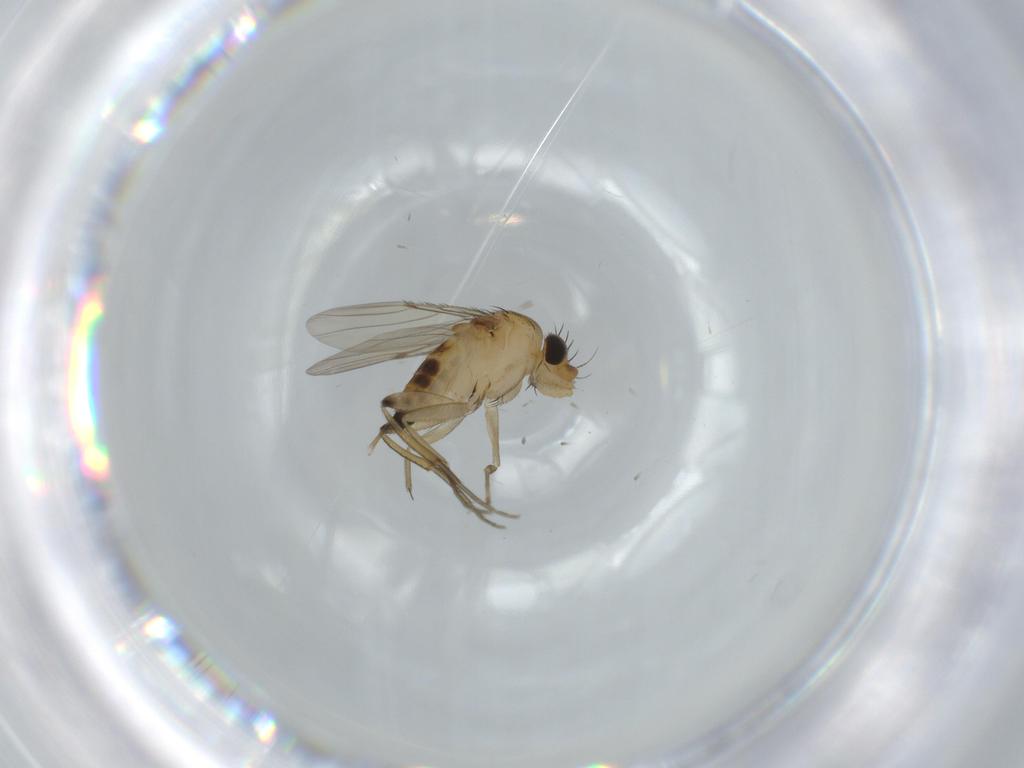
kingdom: Animalia
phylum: Arthropoda
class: Insecta
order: Diptera
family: Phoridae
